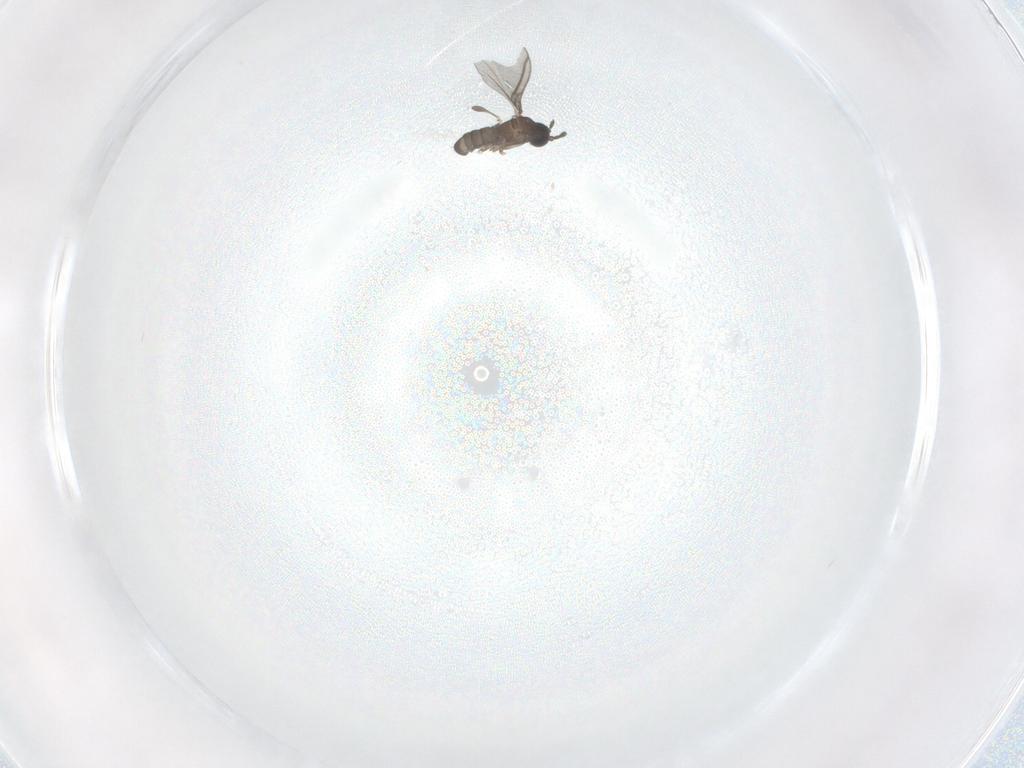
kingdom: Animalia
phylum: Arthropoda
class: Insecta
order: Diptera
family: Sciaridae
